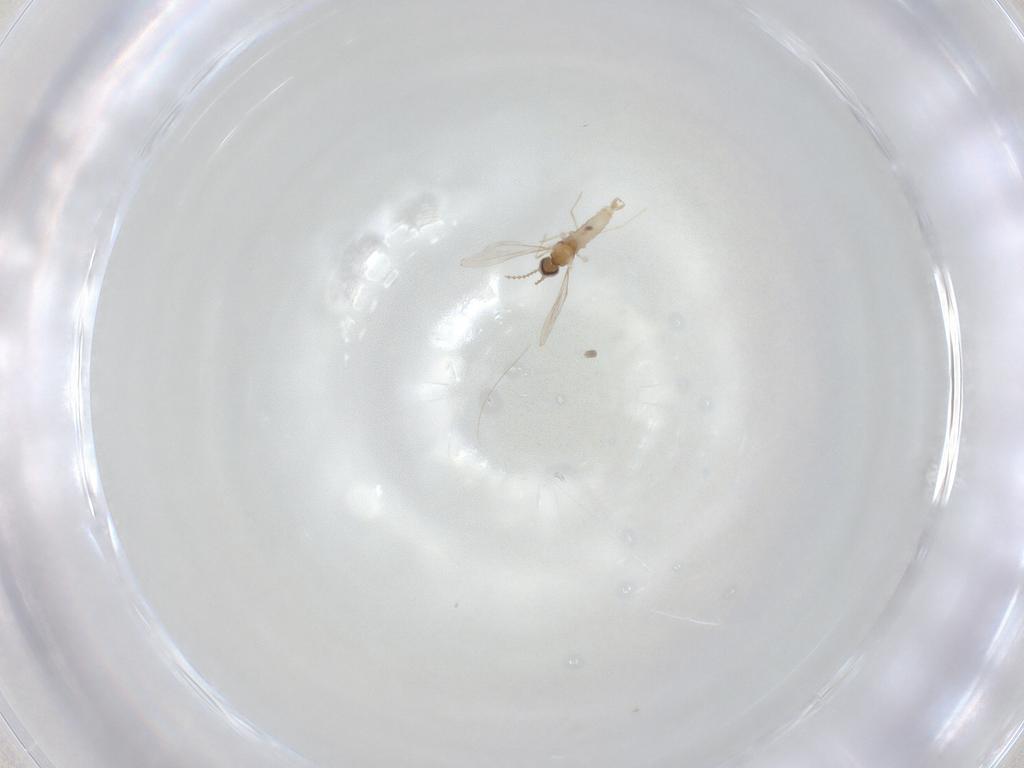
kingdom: Animalia
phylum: Arthropoda
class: Insecta
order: Diptera
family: Cecidomyiidae
